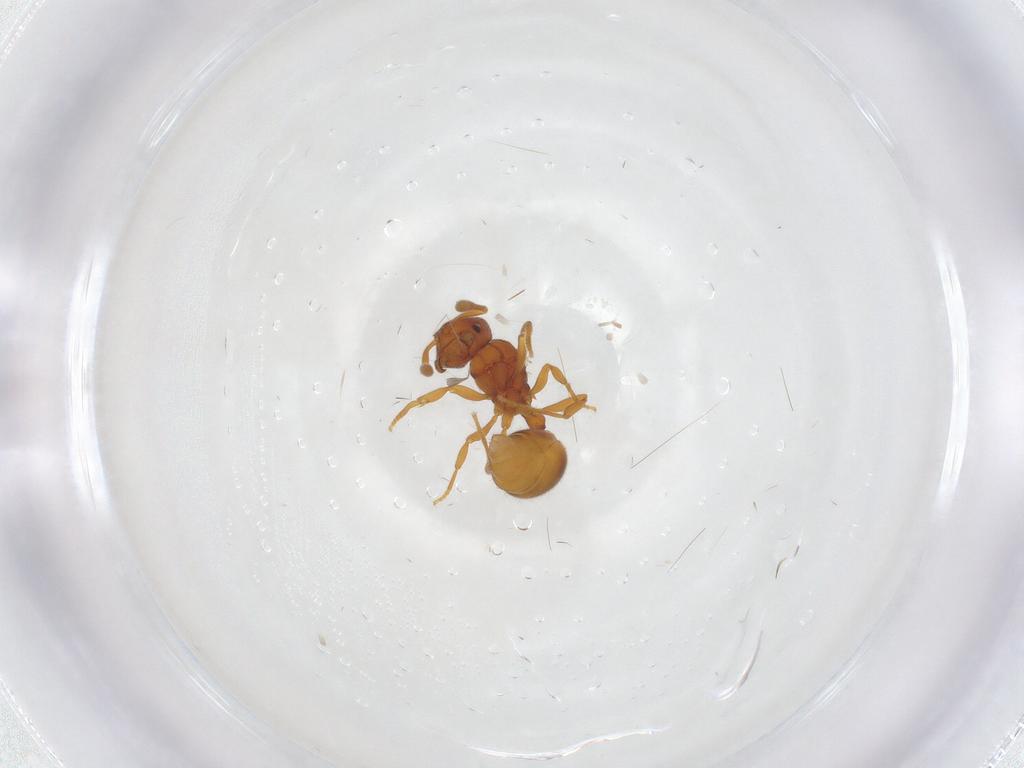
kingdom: Animalia
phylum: Arthropoda
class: Insecta
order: Hymenoptera
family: Formicidae
